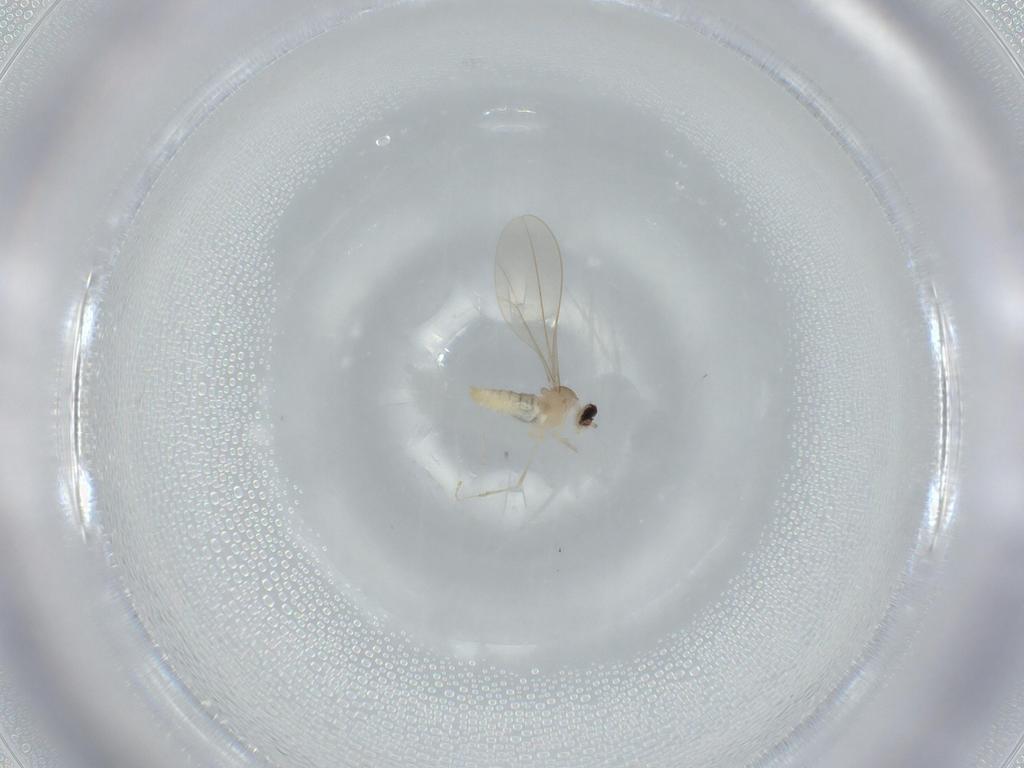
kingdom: Animalia
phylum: Arthropoda
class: Insecta
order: Diptera
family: Cecidomyiidae
